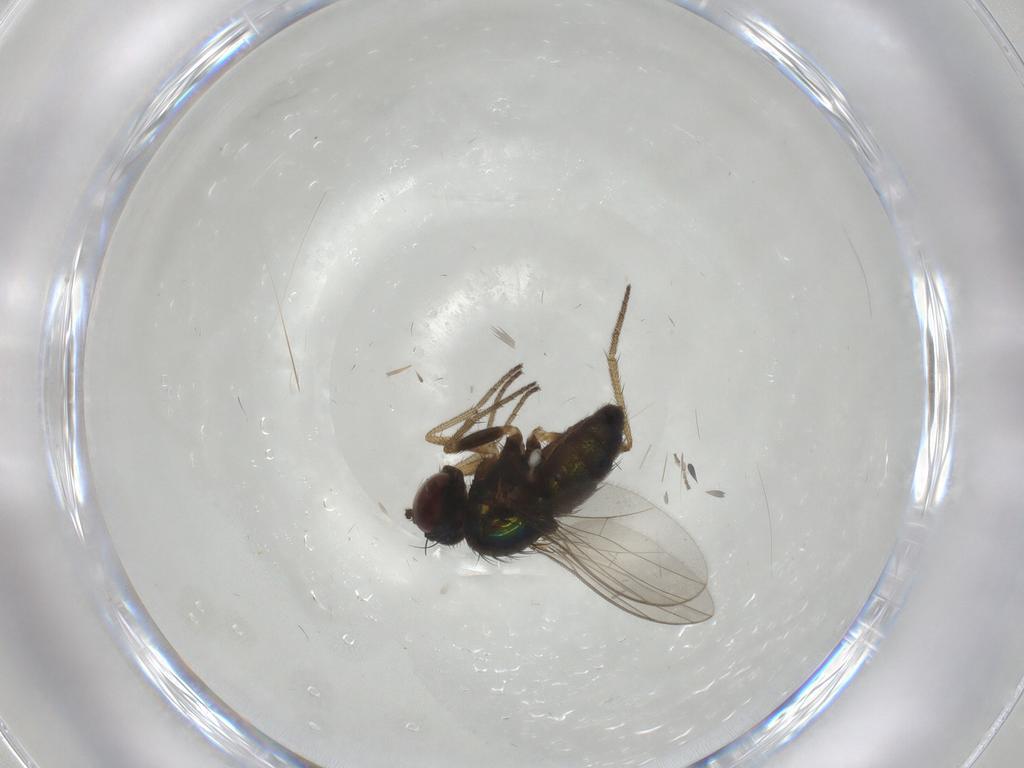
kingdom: Animalia
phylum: Arthropoda
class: Insecta
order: Diptera
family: Dolichopodidae
